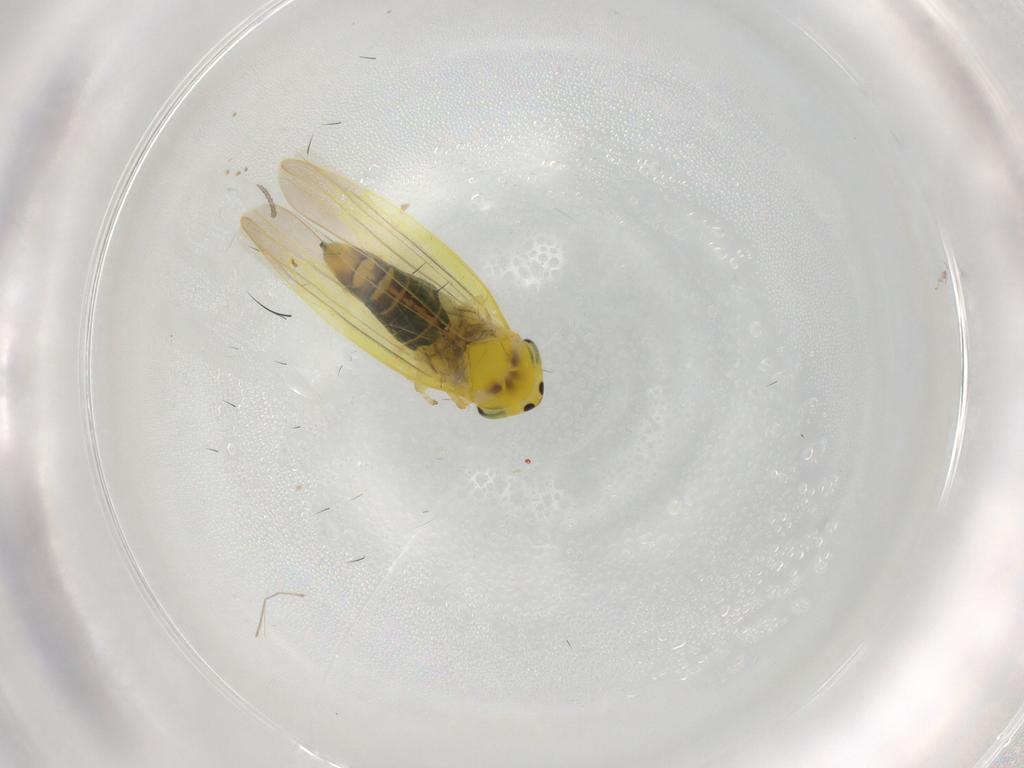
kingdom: Animalia
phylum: Arthropoda
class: Insecta
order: Hemiptera
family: Cicadellidae
